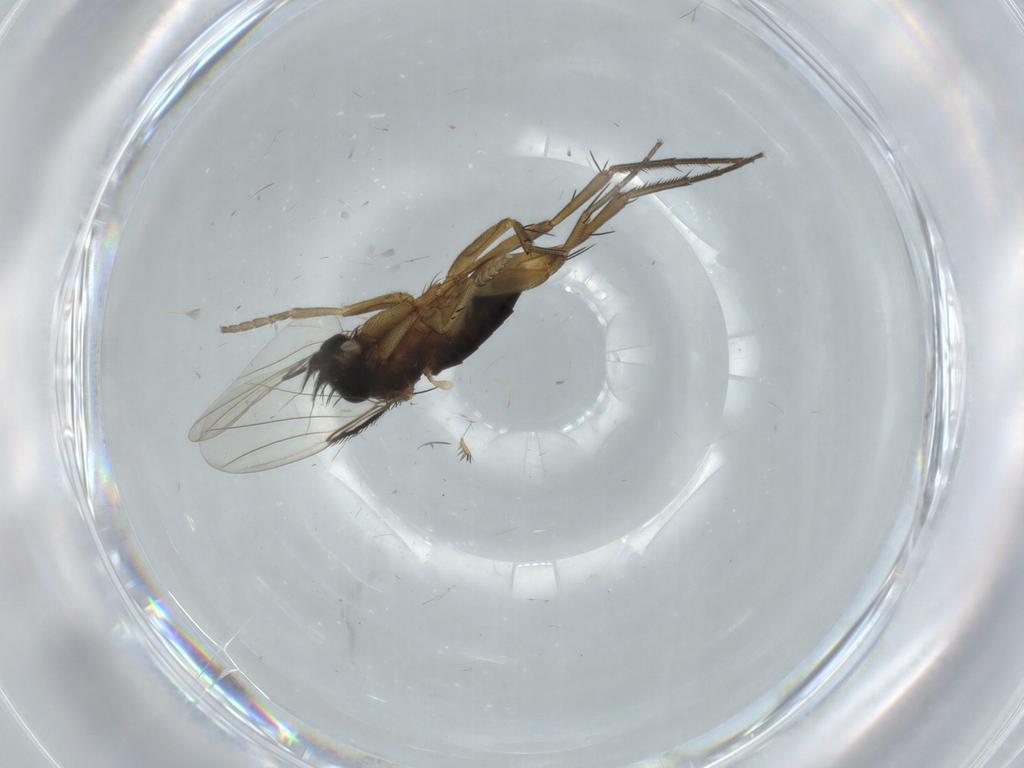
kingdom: Animalia
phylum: Arthropoda
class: Insecta
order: Diptera
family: Phoridae
